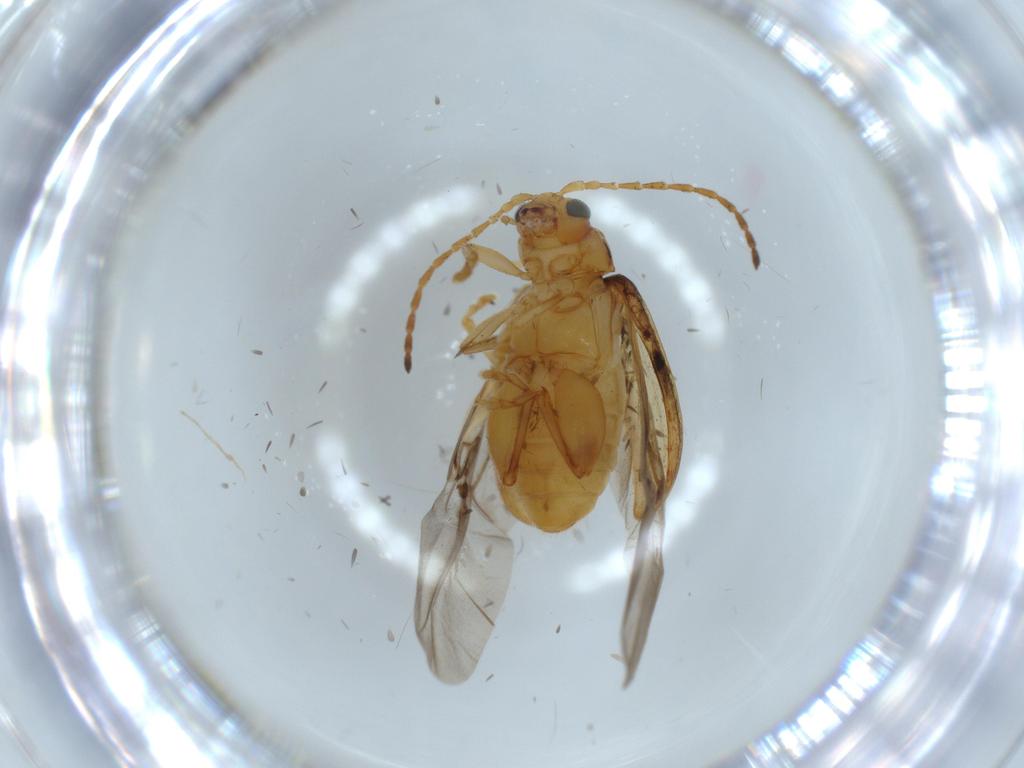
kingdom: Animalia
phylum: Arthropoda
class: Insecta
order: Coleoptera
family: Chrysomelidae
